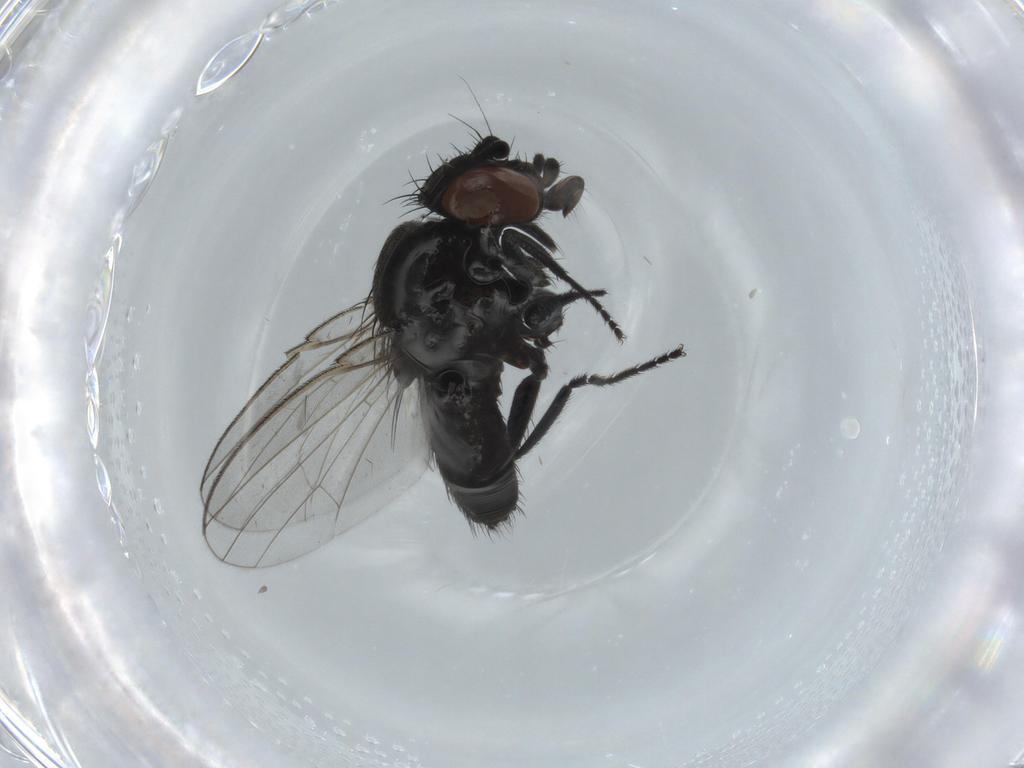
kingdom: Animalia
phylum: Arthropoda
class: Insecta
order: Diptera
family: Milichiidae
